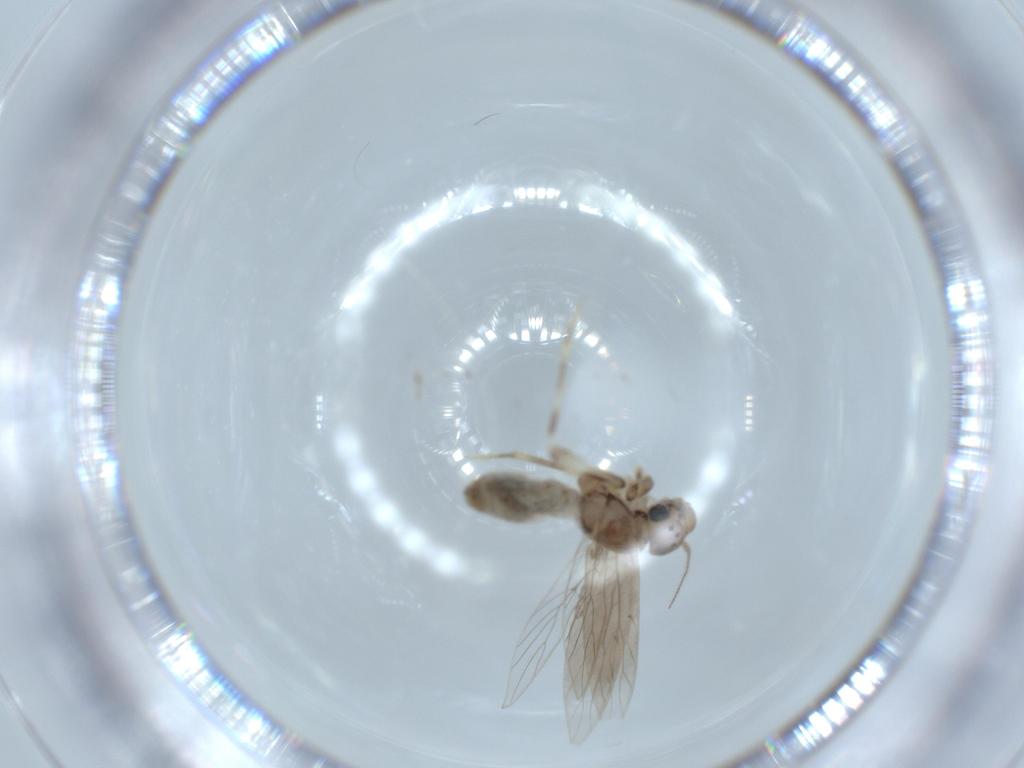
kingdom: Animalia
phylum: Arthropoda
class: Insecta
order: Psocodea
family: Lepidopsocidae
